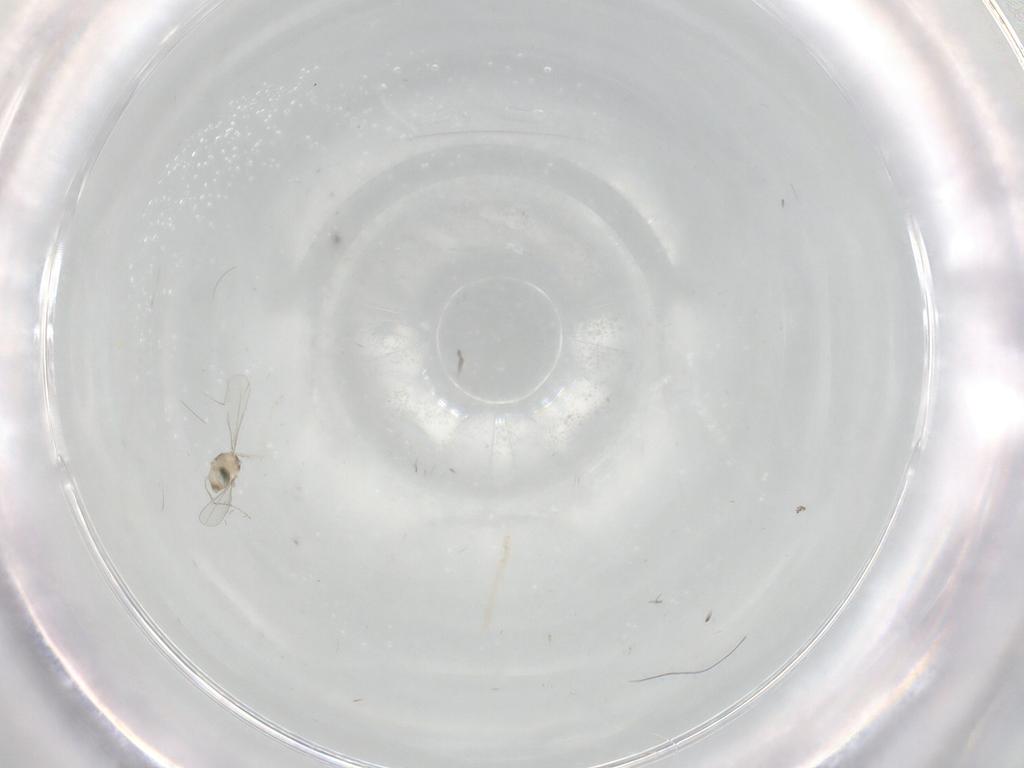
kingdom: Animalia
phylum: Arthropoda
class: Insecta
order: Diptera
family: Cecidomyiidae
